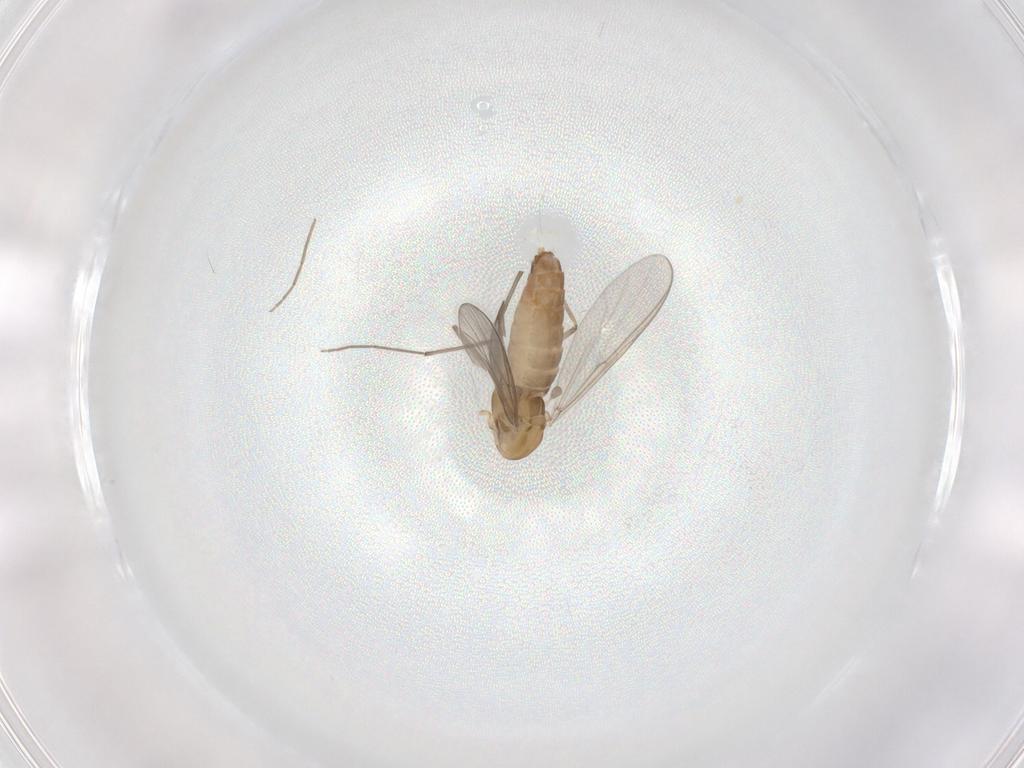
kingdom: Animalia
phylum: Arthropoda
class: Insecta
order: Diptera
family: Chironomidae
